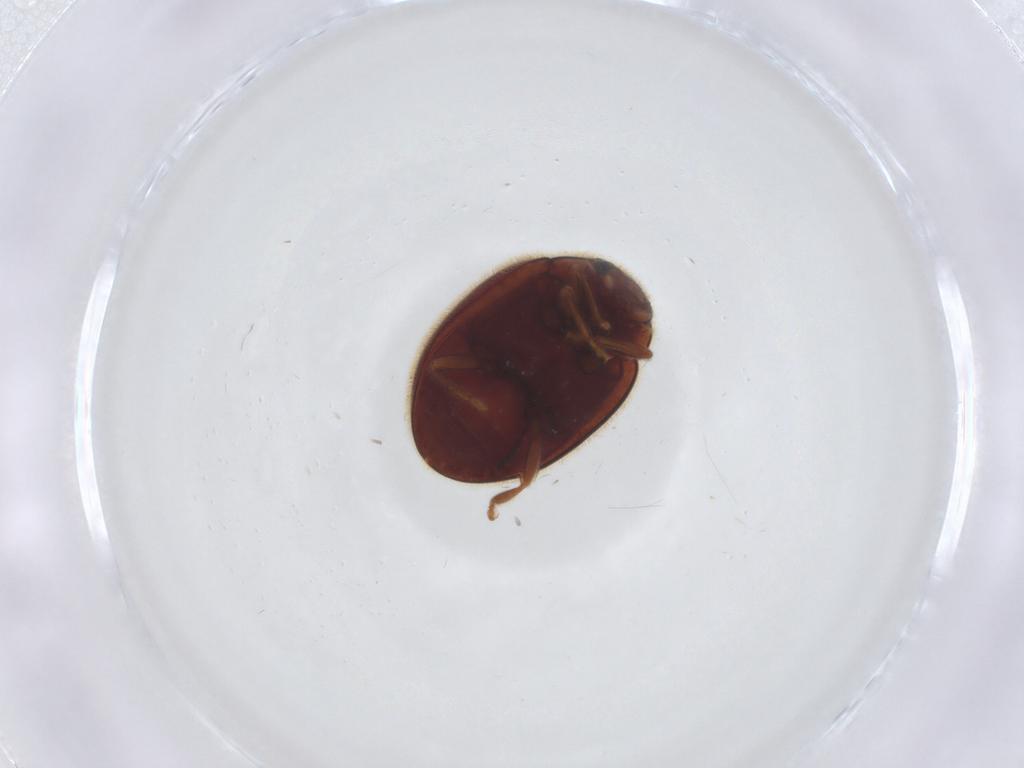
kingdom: Animalia
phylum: Arthropoda
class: Insecta
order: Coleoptera
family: Coccinellidae
